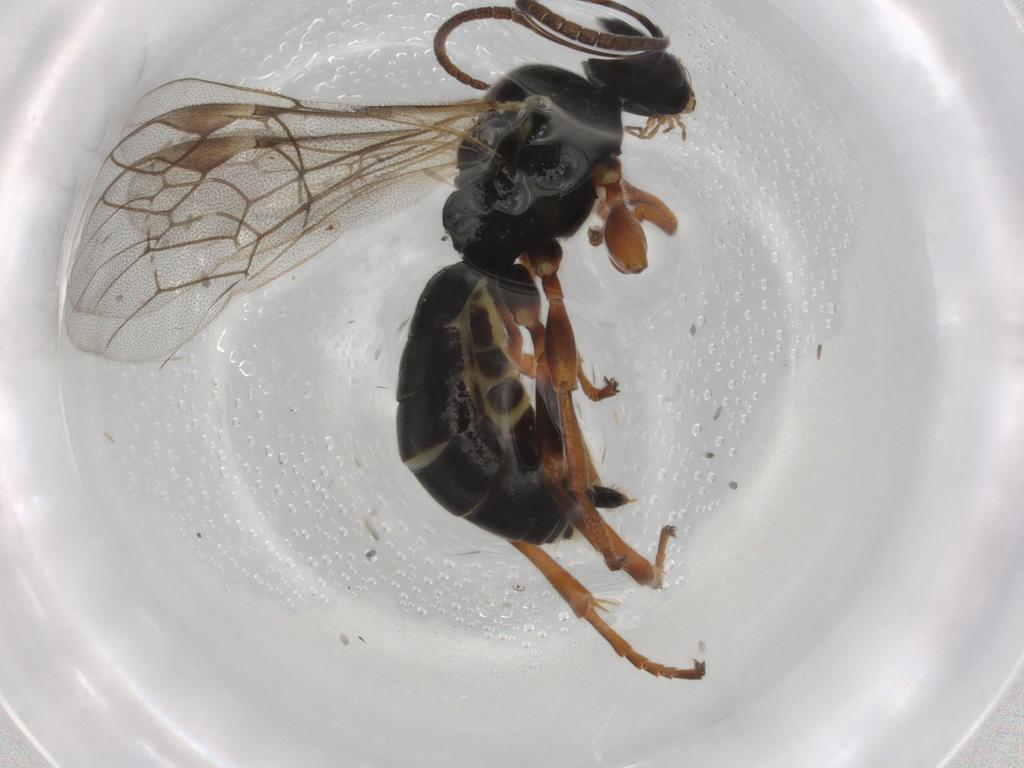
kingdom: Animalia
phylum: Arthropoda
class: Insecta
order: Hymenoptera
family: Ichneumonidae
